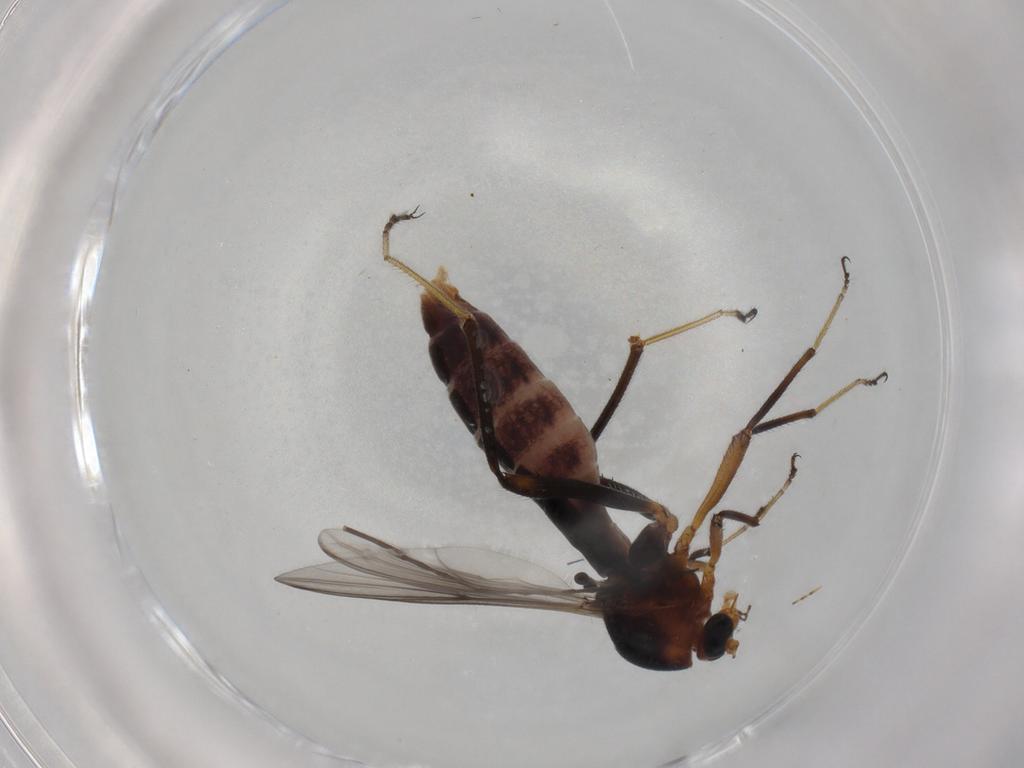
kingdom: Animalia
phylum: Arthropoda
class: Insecta
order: Diptera
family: Ceratopogonidae
